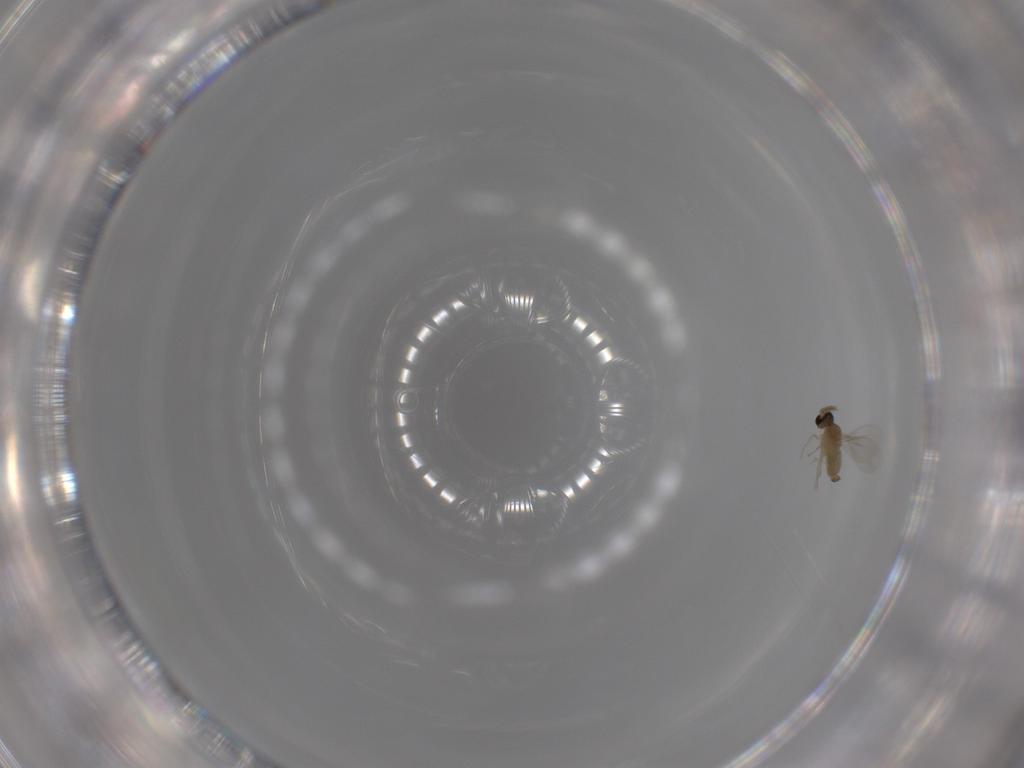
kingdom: Animalia
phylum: Arthropoda
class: Insecta
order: Diptera
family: Cecidomyiidae
